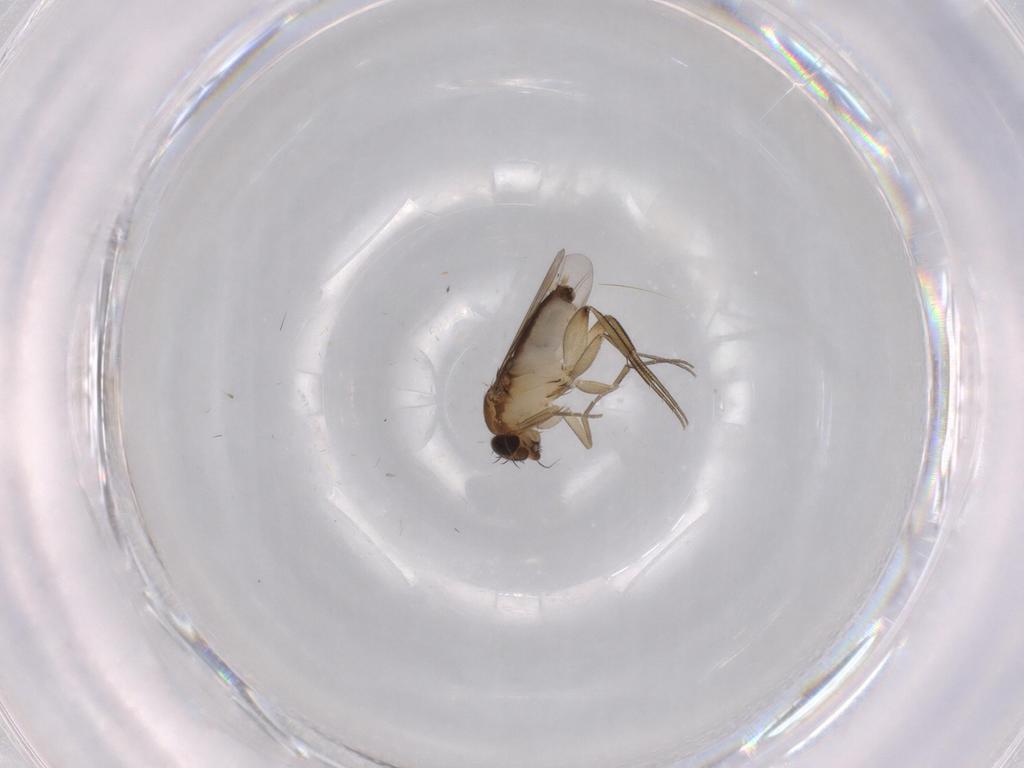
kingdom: Animalia
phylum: Arthropoda
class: Insecta
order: Diptera
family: Phoridae
